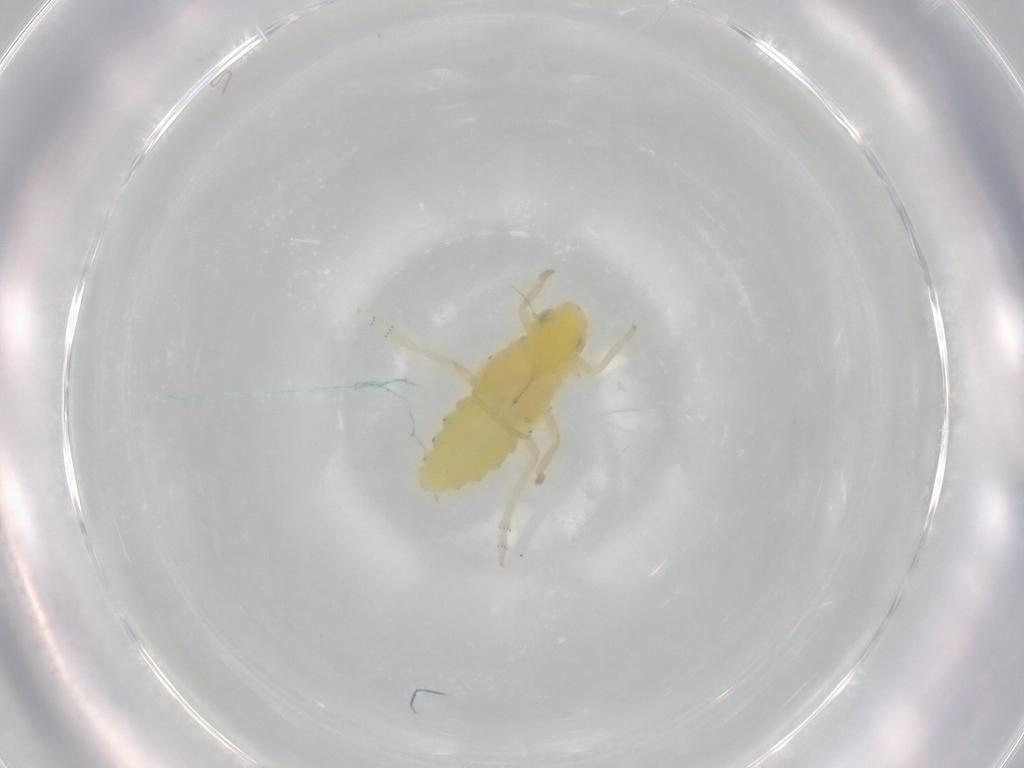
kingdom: Animalia
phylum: Arthropoda
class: Insecta
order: Hemiptera
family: Tropiduchidae
